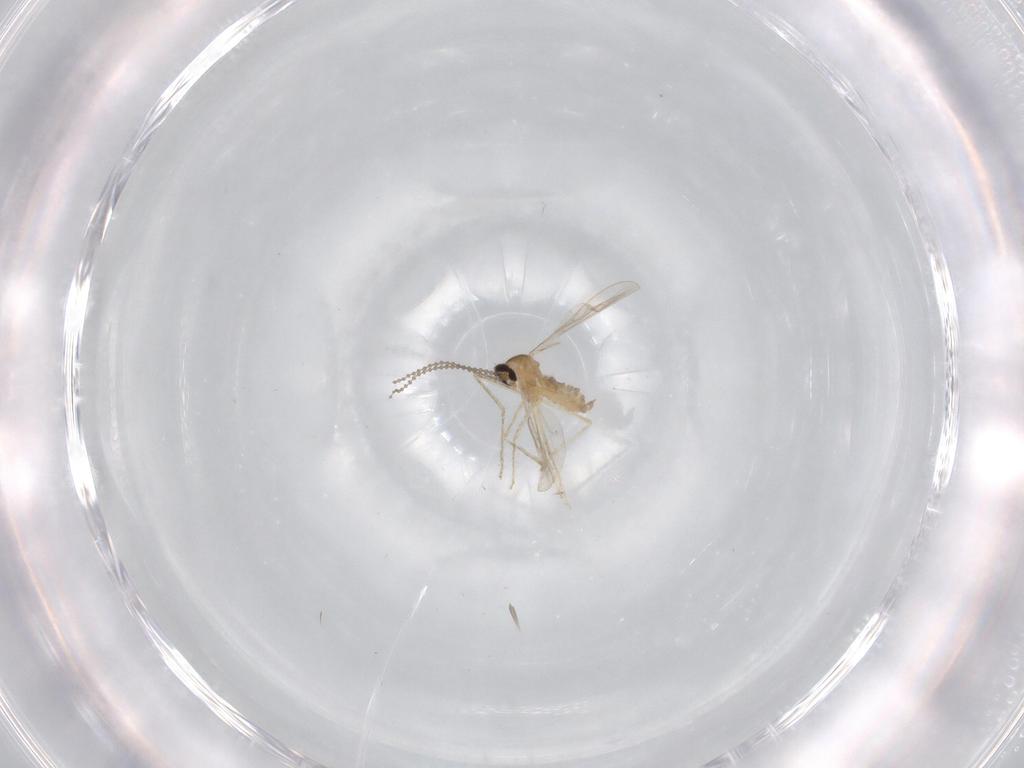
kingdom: Animalia
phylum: Arthropoda
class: Insecta
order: Diptera
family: Cecidomyiidae
